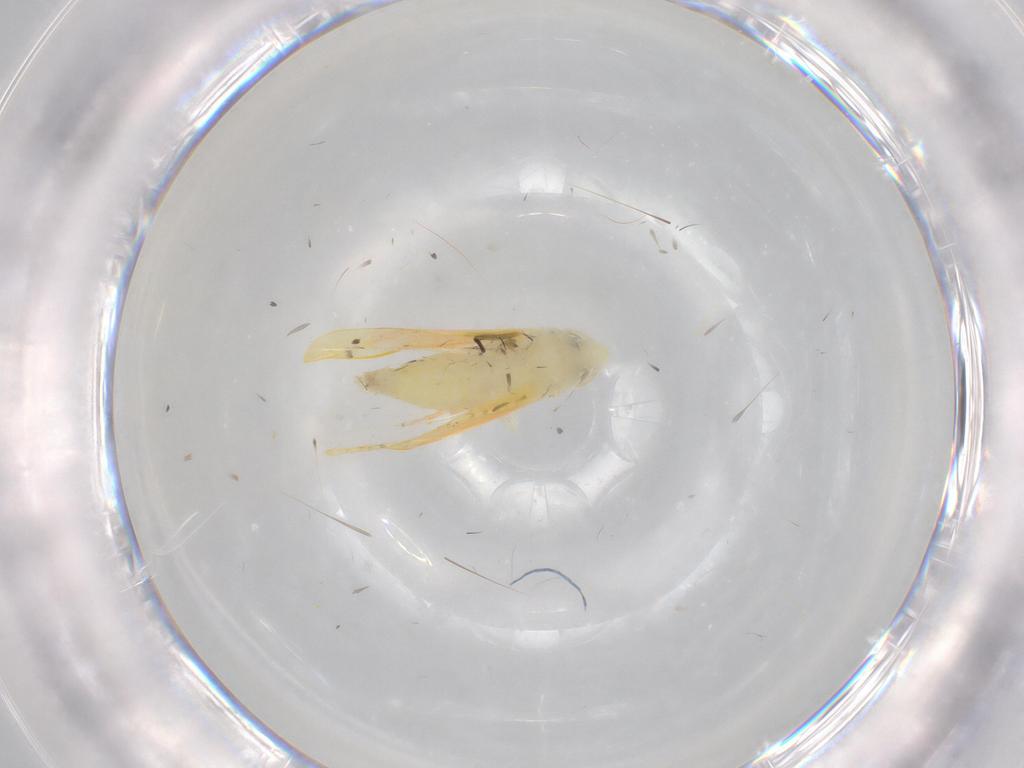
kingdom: Animalia
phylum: Arthropoda
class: Insecta
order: Hemiptera
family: Cicadellidae
